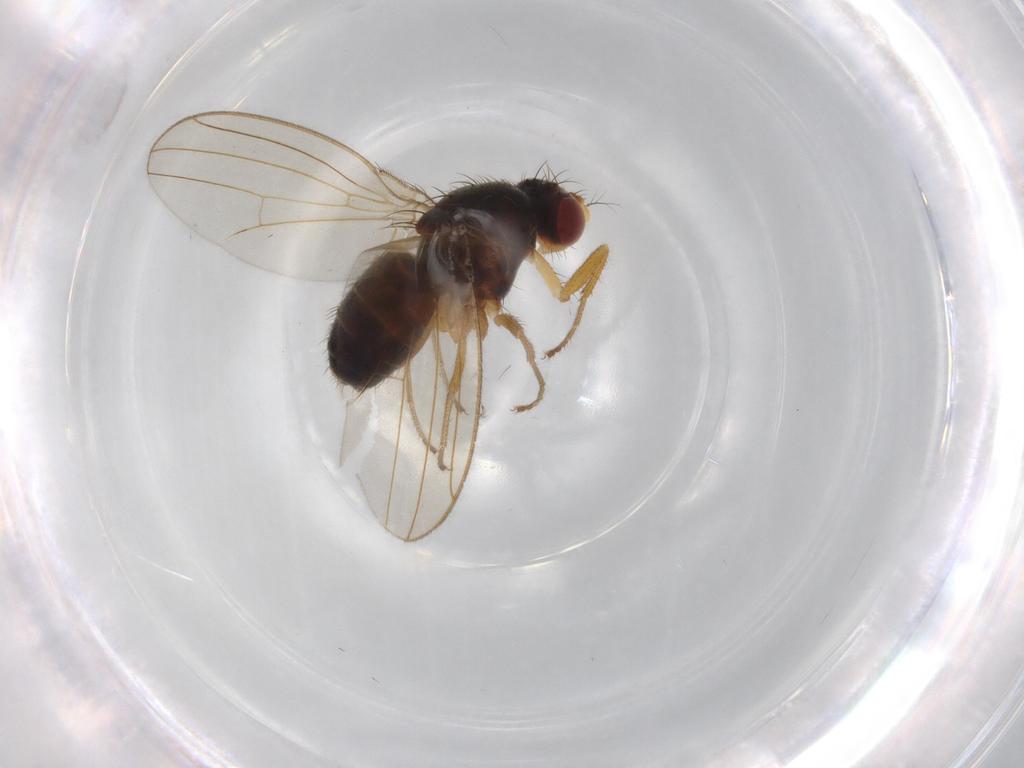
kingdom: Animalia
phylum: Arthropoda
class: Insecta
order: Diptera
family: Drosophilidae
